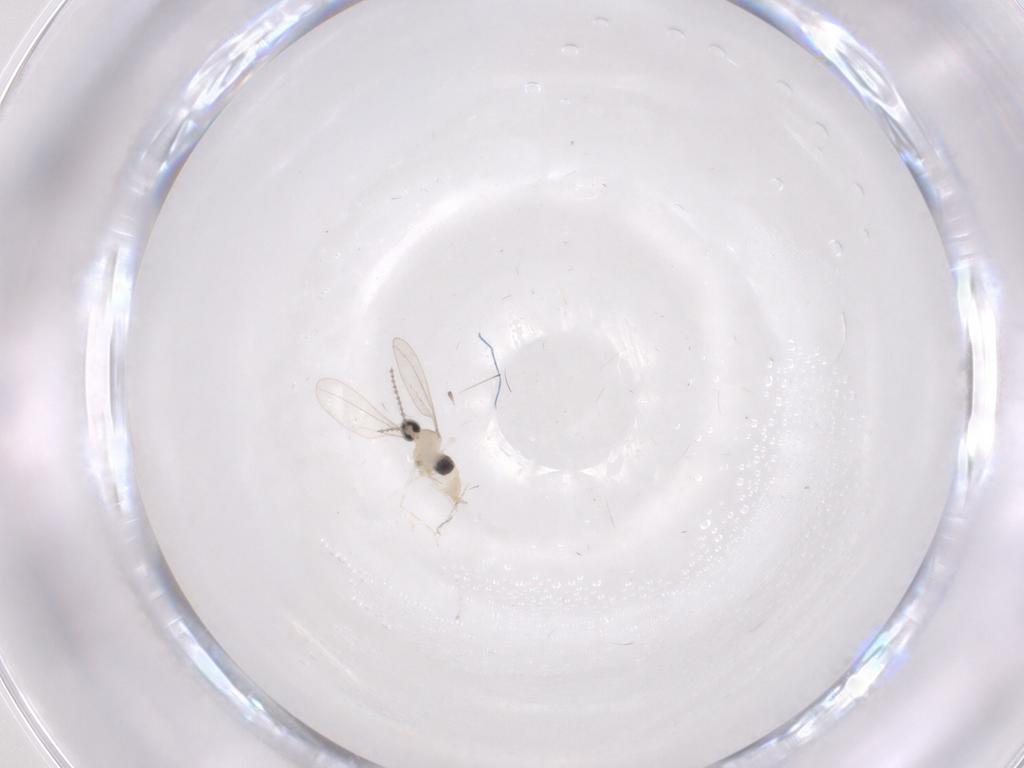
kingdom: Animalia
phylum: Arthropoda
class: Insecta
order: Diptera
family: Cecidomyiidae
